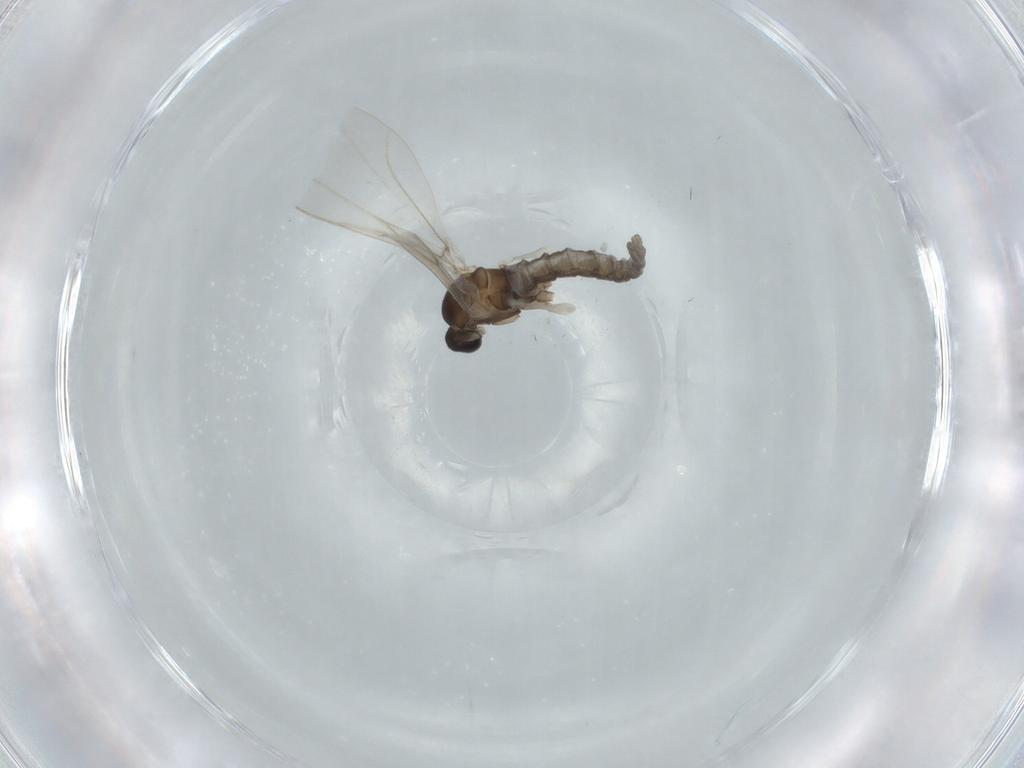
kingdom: Animalia
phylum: Arthropoda
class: Insecta
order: Diptera
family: Cecidomyiidae
